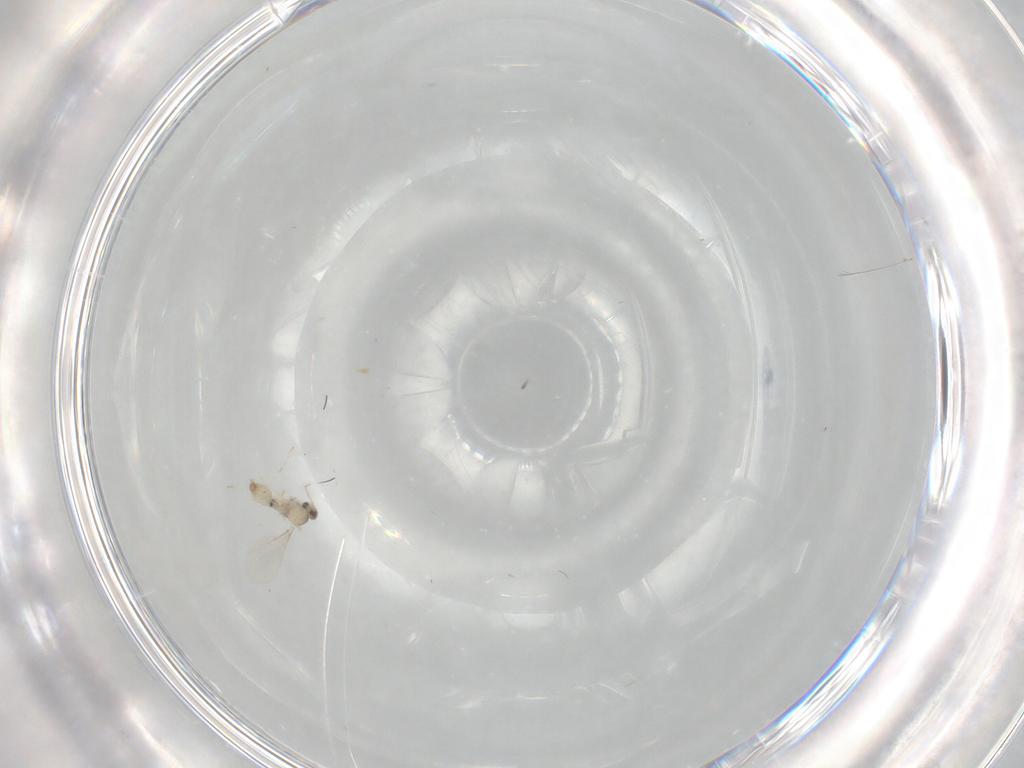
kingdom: Animalia
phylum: Arthropoda
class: Insecta
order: Diptera
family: Cecidomyiidae
